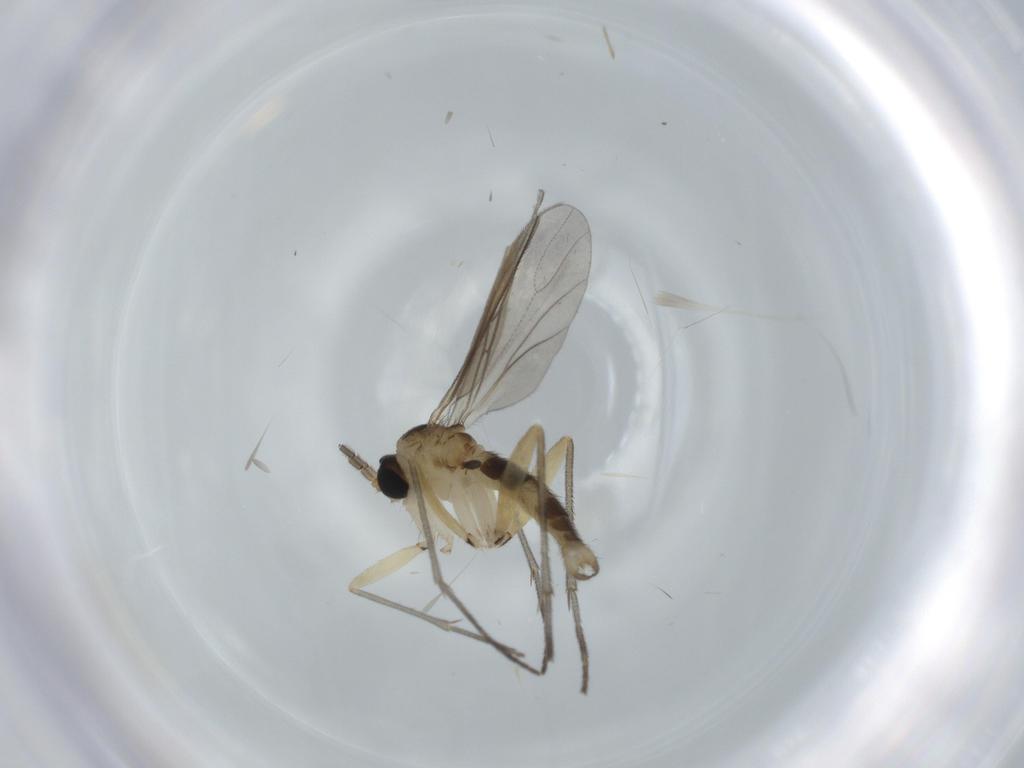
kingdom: Animalia
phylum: Arthropoda
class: Insecta
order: Diptera
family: Sciaridae
